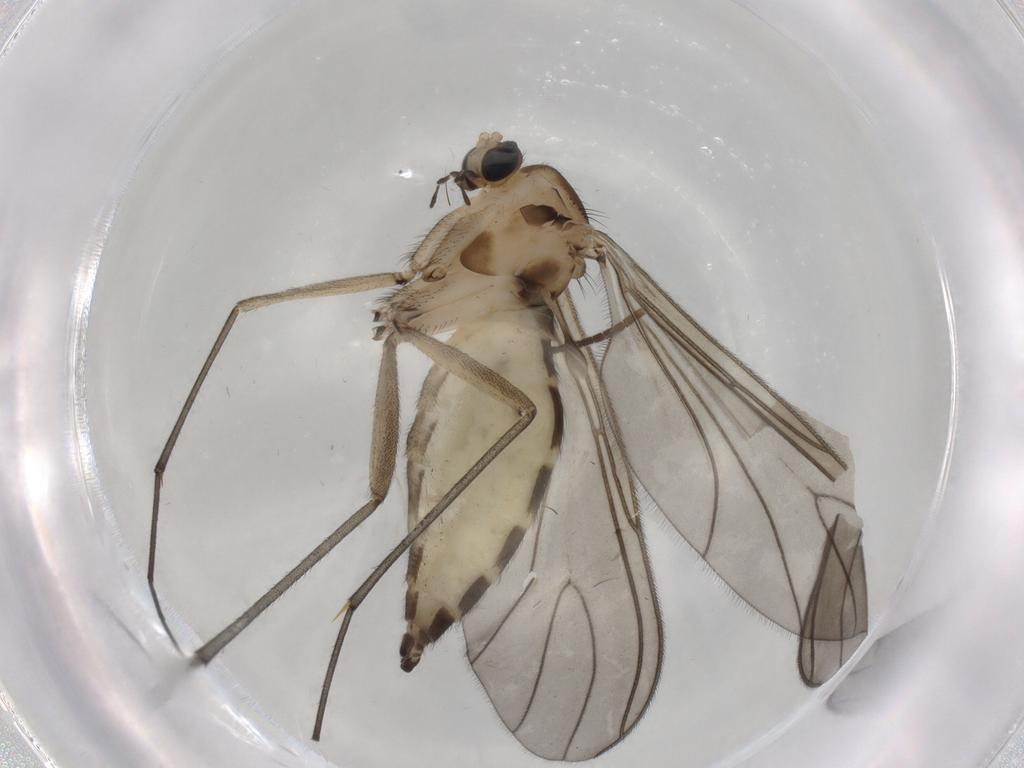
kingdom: Animalia
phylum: Arthropoda
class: Insecta
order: Diptera
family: Sciaridae
